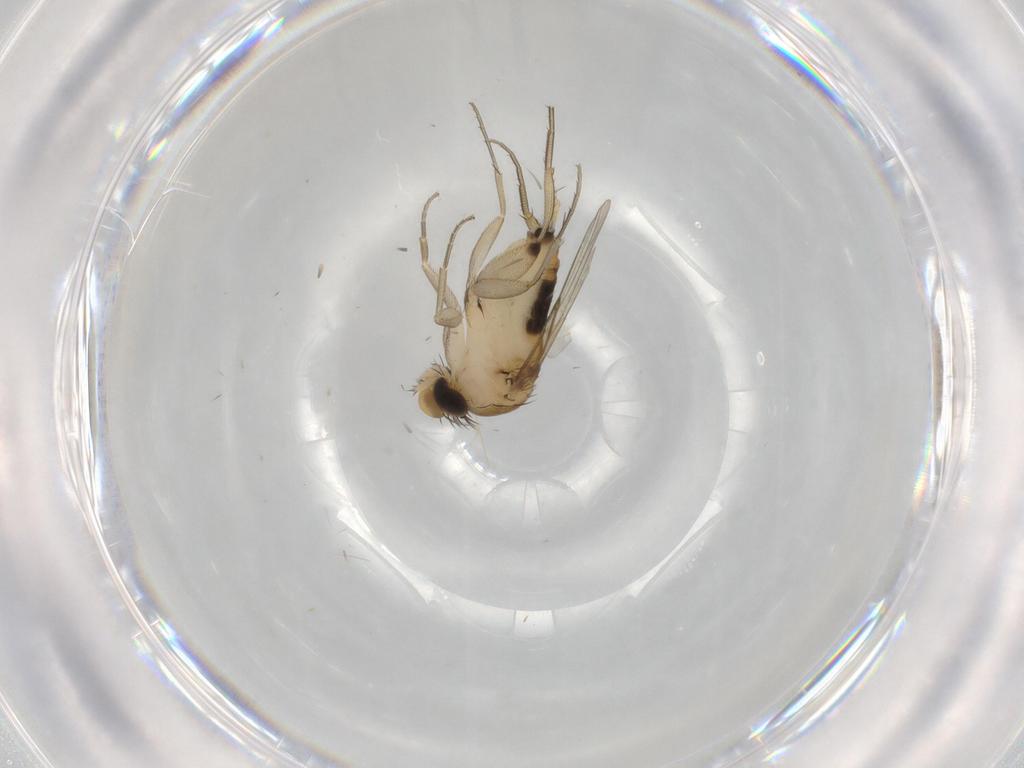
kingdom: Animalia
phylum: Arthropoda
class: Insecta
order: Diptera
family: Phoridae
